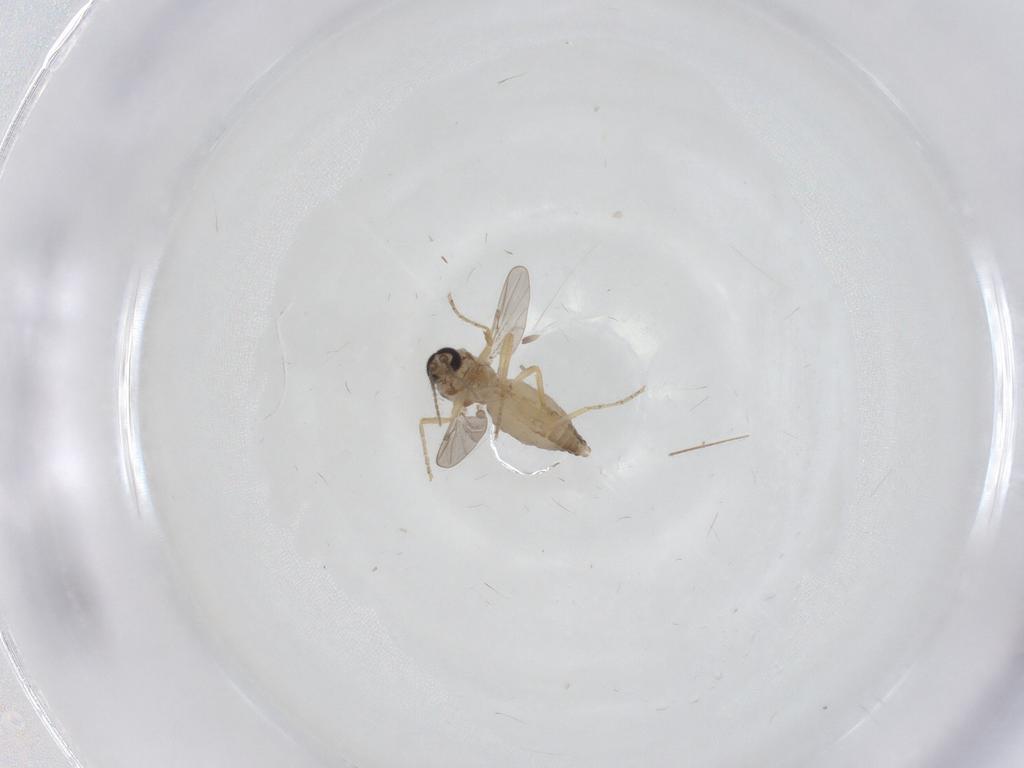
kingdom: Animalia
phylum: Arthropoda
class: Insecta
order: Diptera
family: Ceratopogonidae
